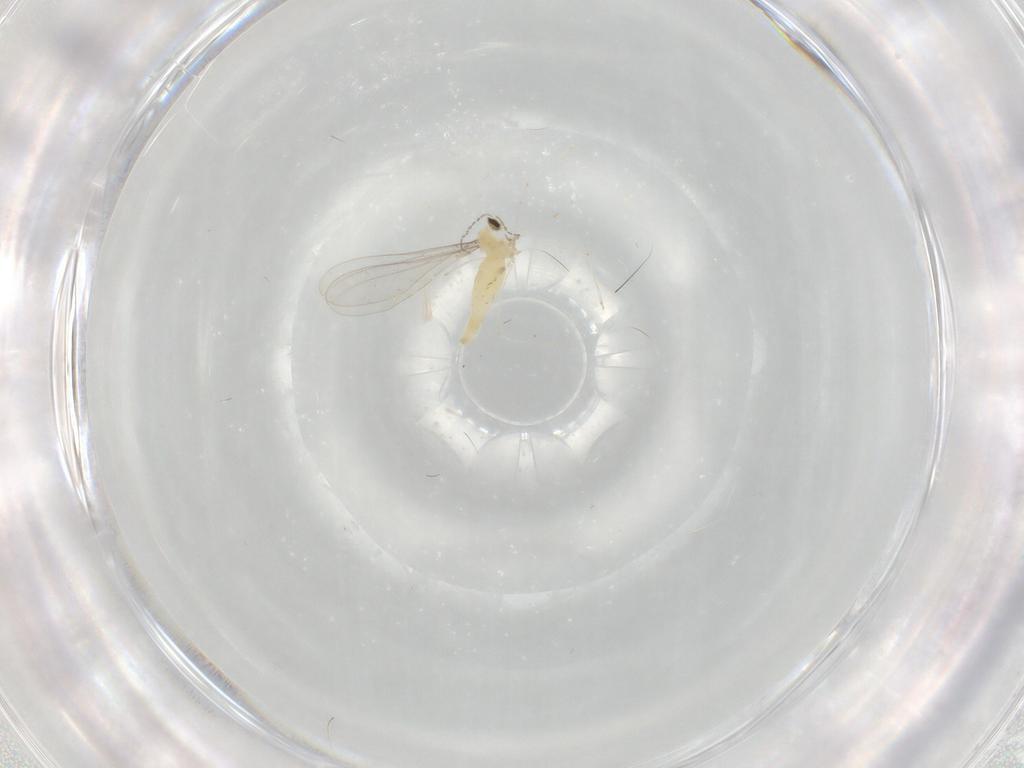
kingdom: Animalia
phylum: Arthropoda
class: Insecta
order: Diptera
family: Cecidomyiidae
